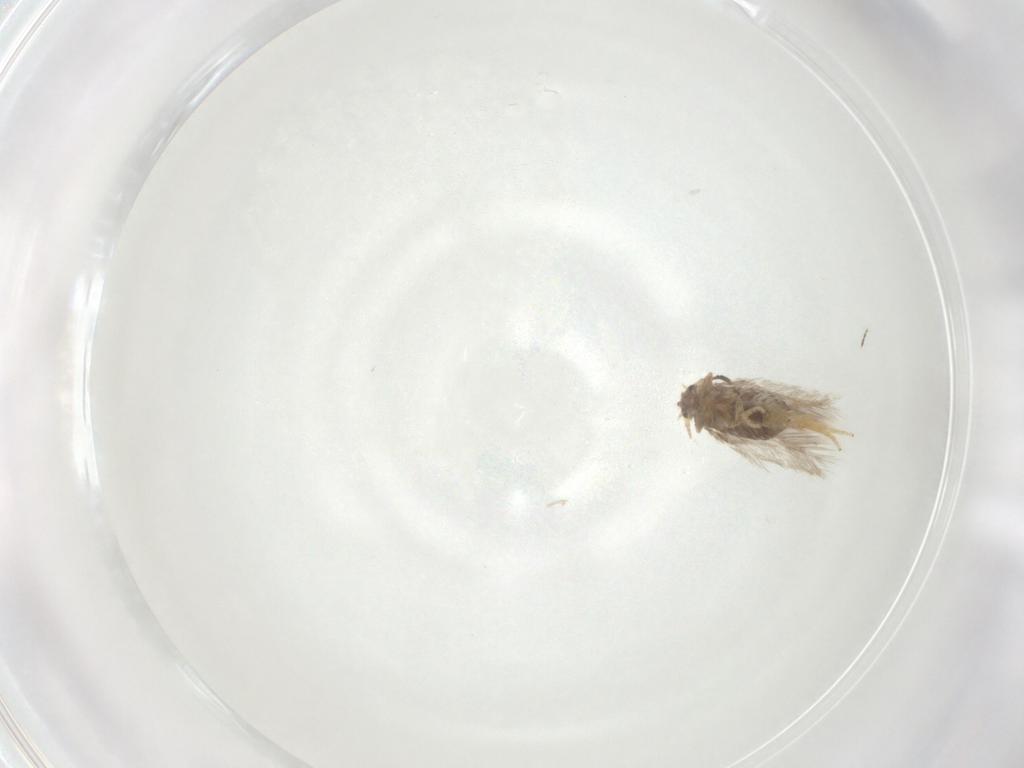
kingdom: Animalia
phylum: Arthropoda
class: Insecta
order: Lepidoptera
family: Nepticulidae
